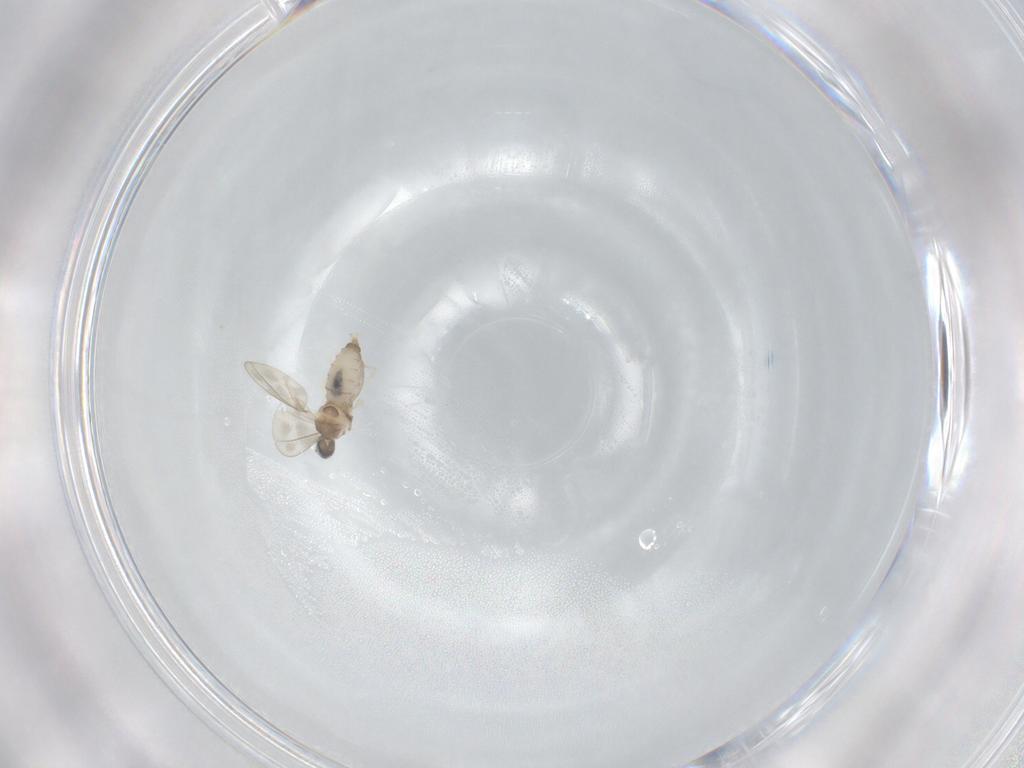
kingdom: Animalia
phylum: Arthropoda
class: Insecta
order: Diptera
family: Cecidomyiidae
